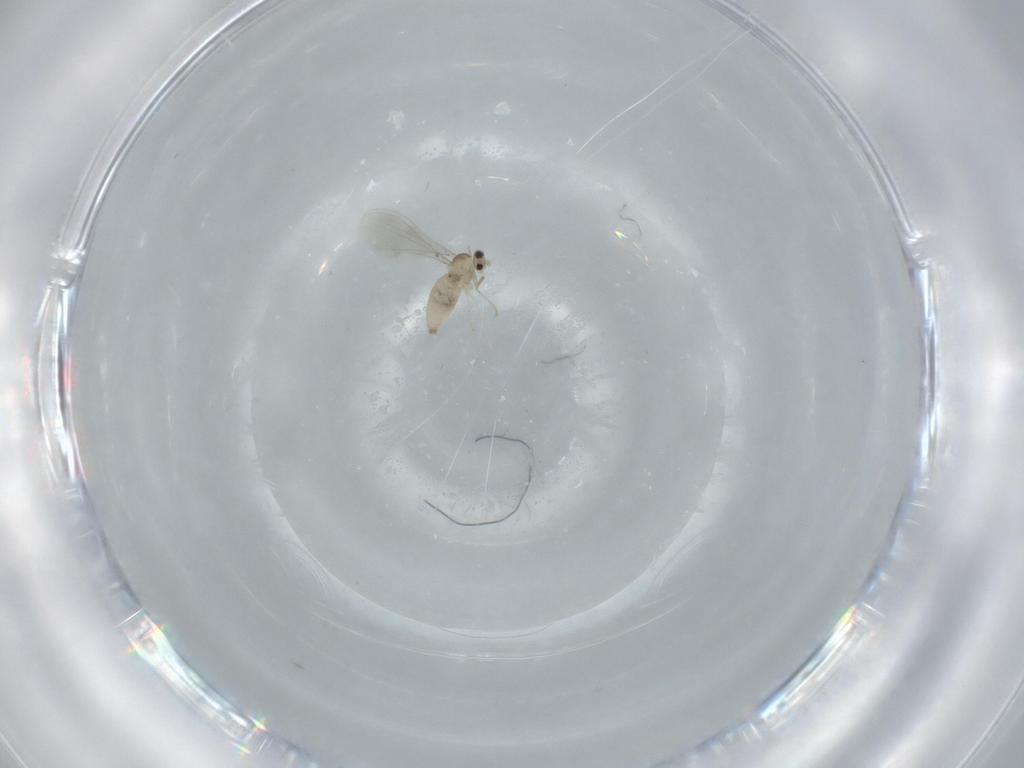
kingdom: Animalia
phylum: Arthropoda
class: Insecta
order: Diptera
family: Cecidomyiidae
